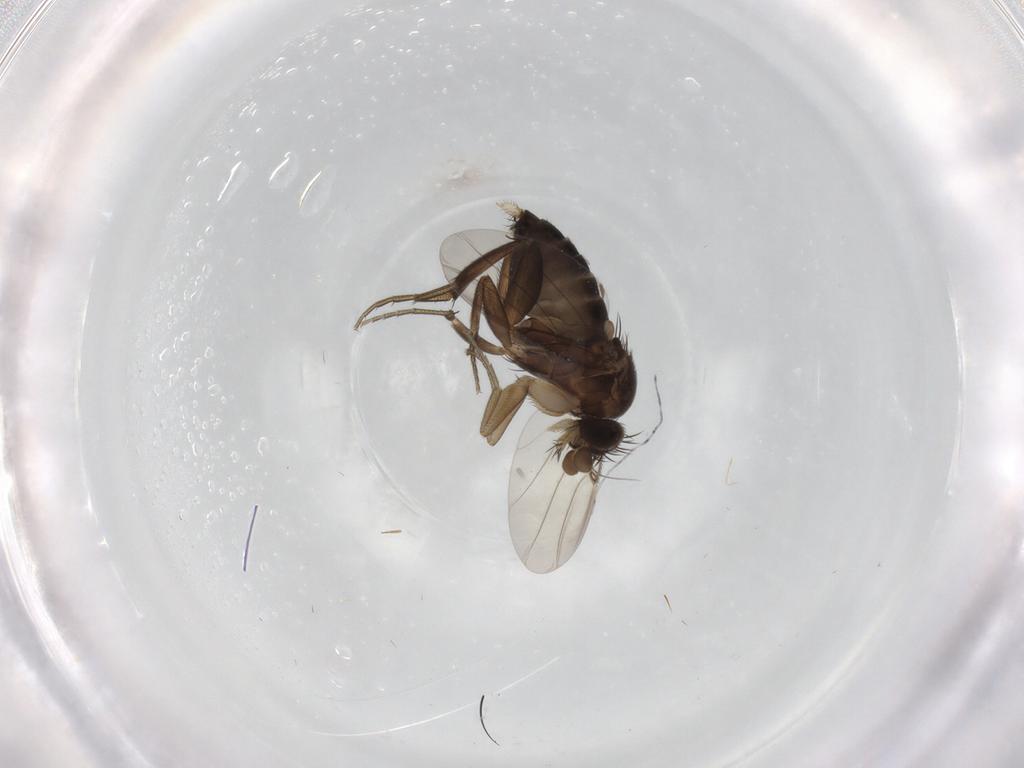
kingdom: Animalia
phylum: Arthropoda
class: Insecta
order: Diptera
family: Phoridae
